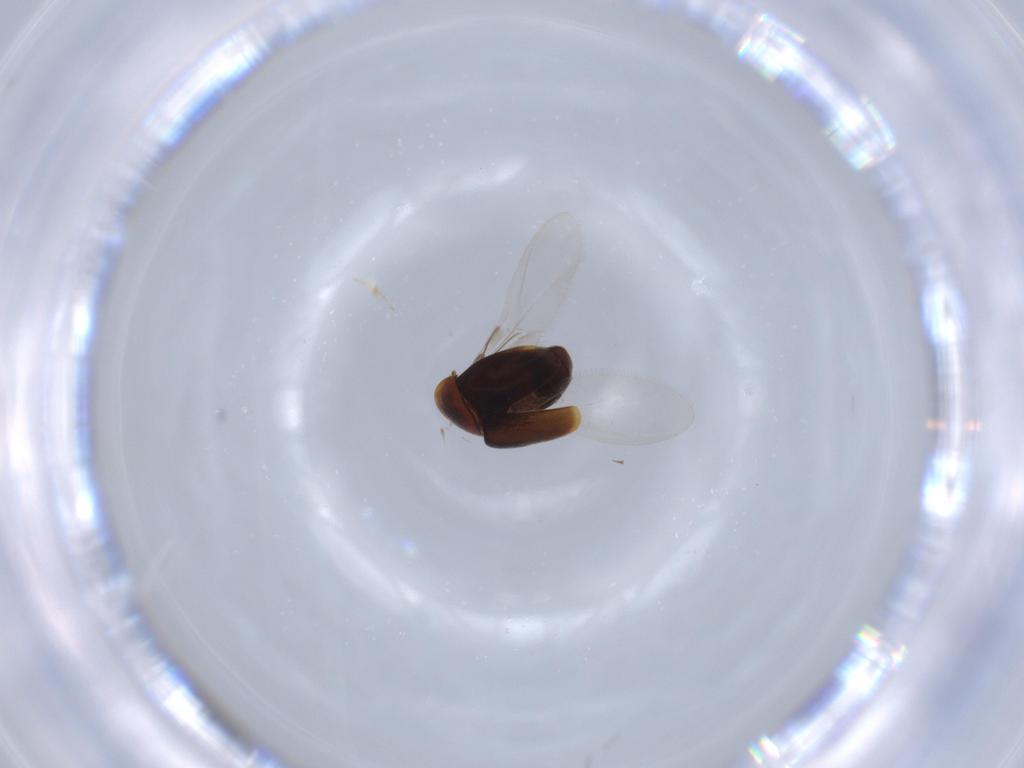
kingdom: Animalia
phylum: Arthropoda
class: Insecta
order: Coleoptera
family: Corylophidae
